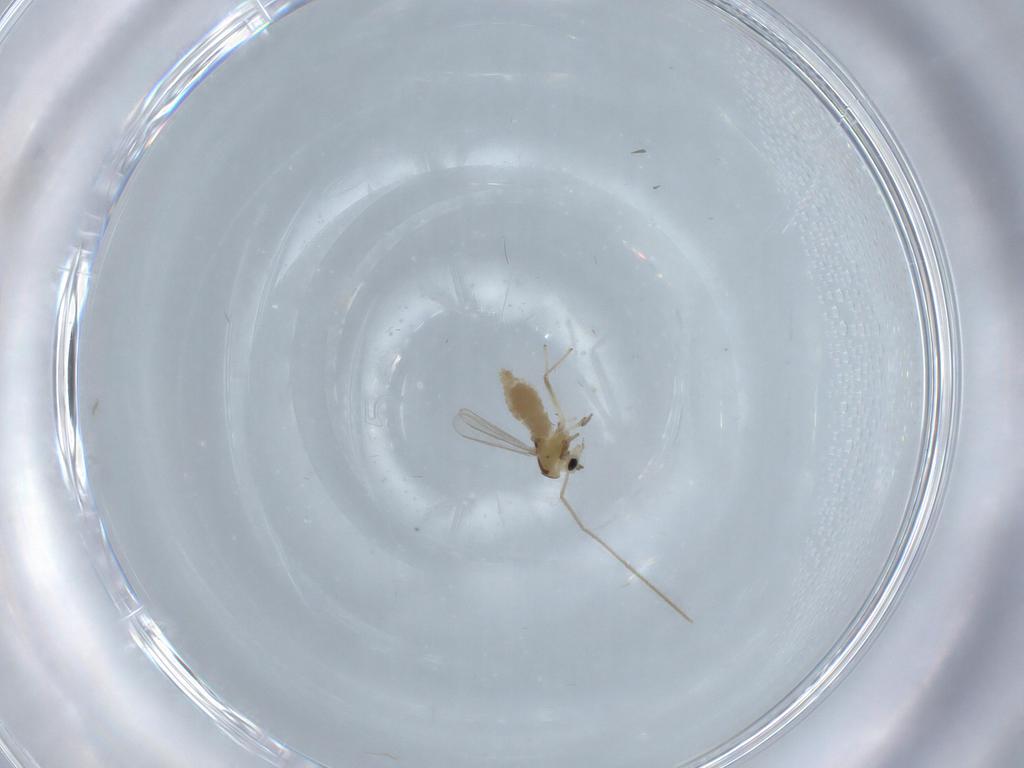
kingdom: Animalia
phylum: Arthropoda
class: Insecta
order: Diptera
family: Chironomidae
